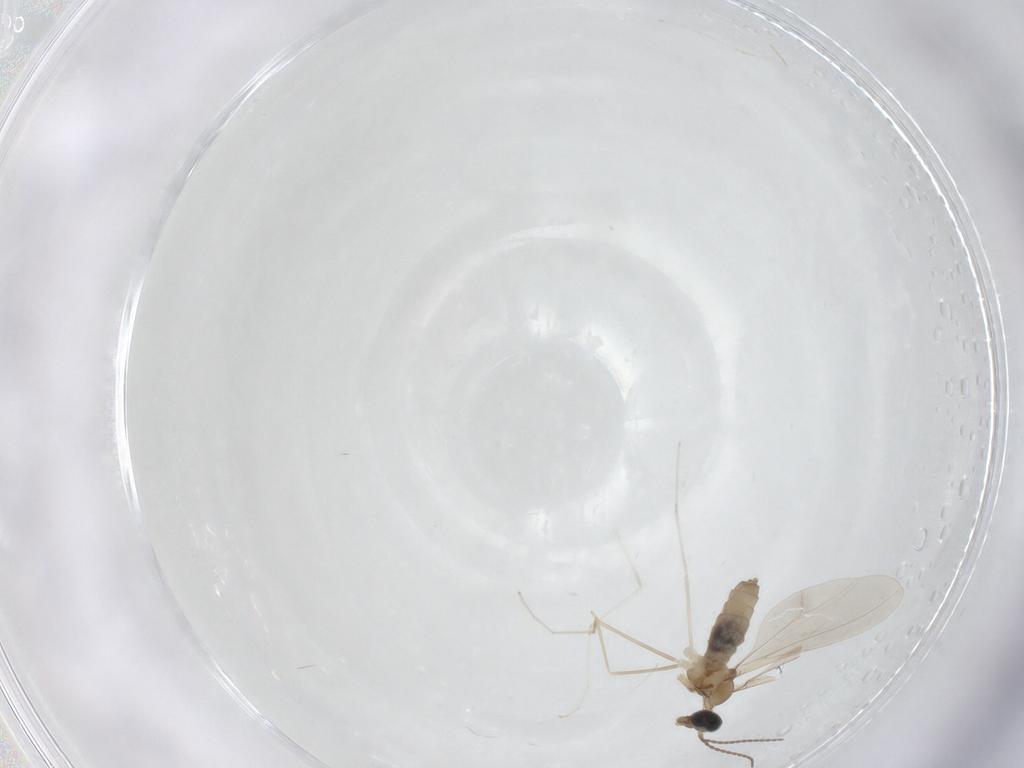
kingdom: Animalia
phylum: Arthropoda
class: Insecta
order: Diptera
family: Cecidomyiidae
